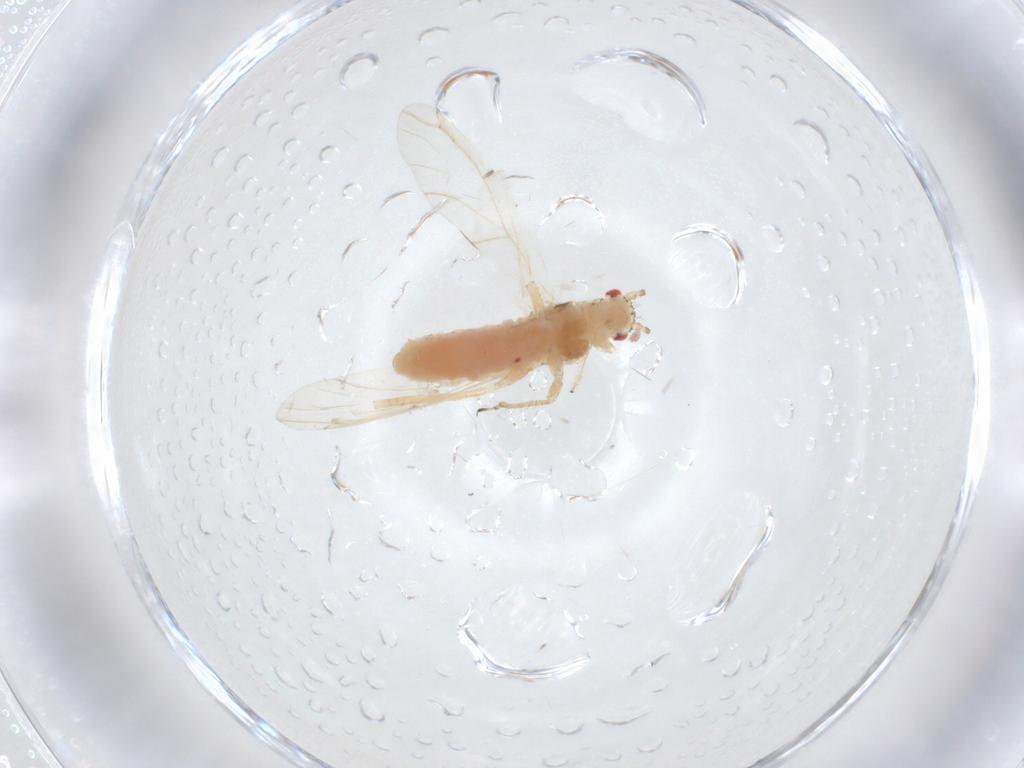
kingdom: Animalia
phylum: Arthropoda
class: Insecta
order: Hemiptera
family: Aphididae
